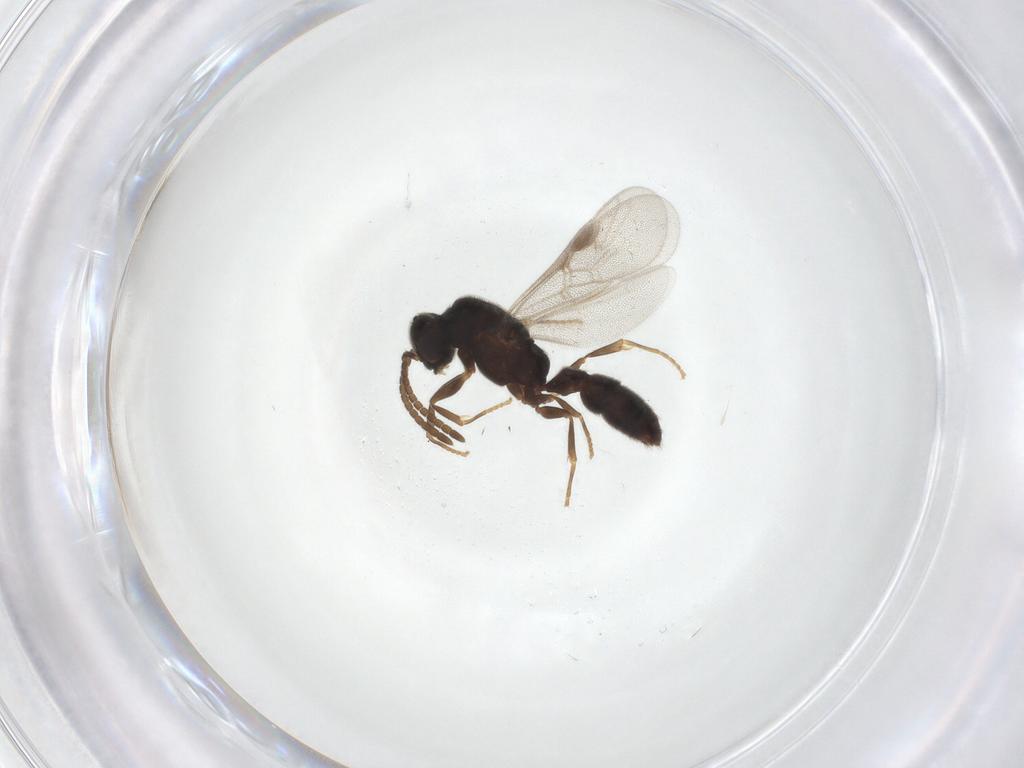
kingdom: Animalia
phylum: Arthropoda
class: Insecta
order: Hymenoptera
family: Formicidae
